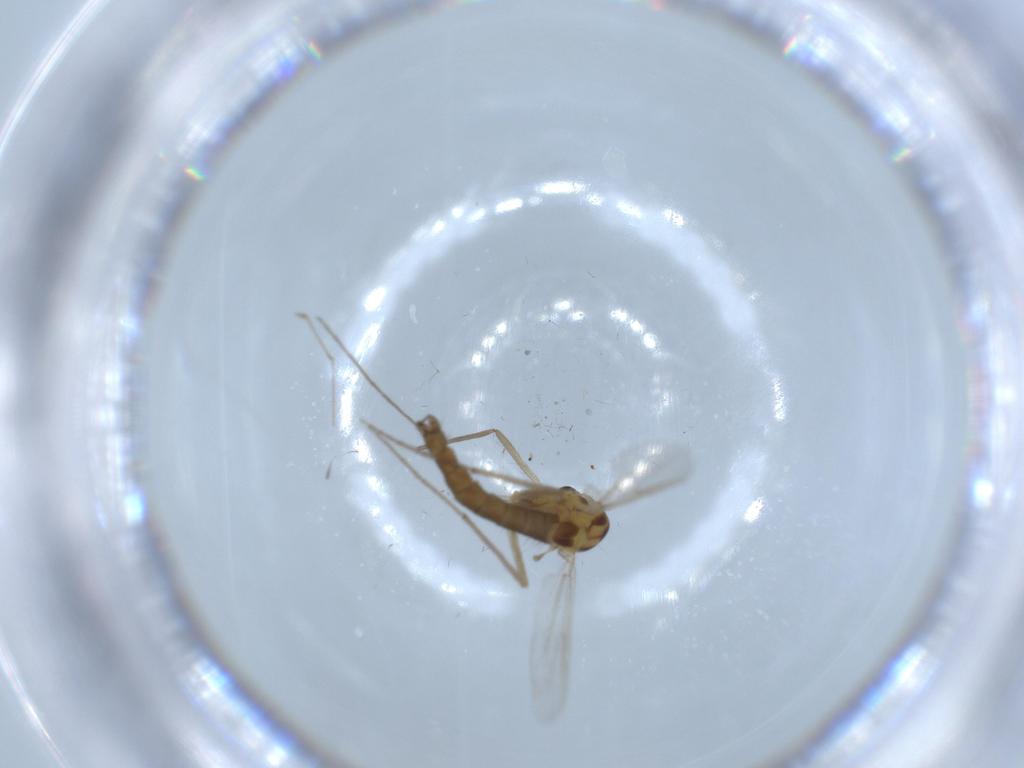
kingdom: Animalia
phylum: Arthropoda
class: Insecta
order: Diptera
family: Chironomidae
